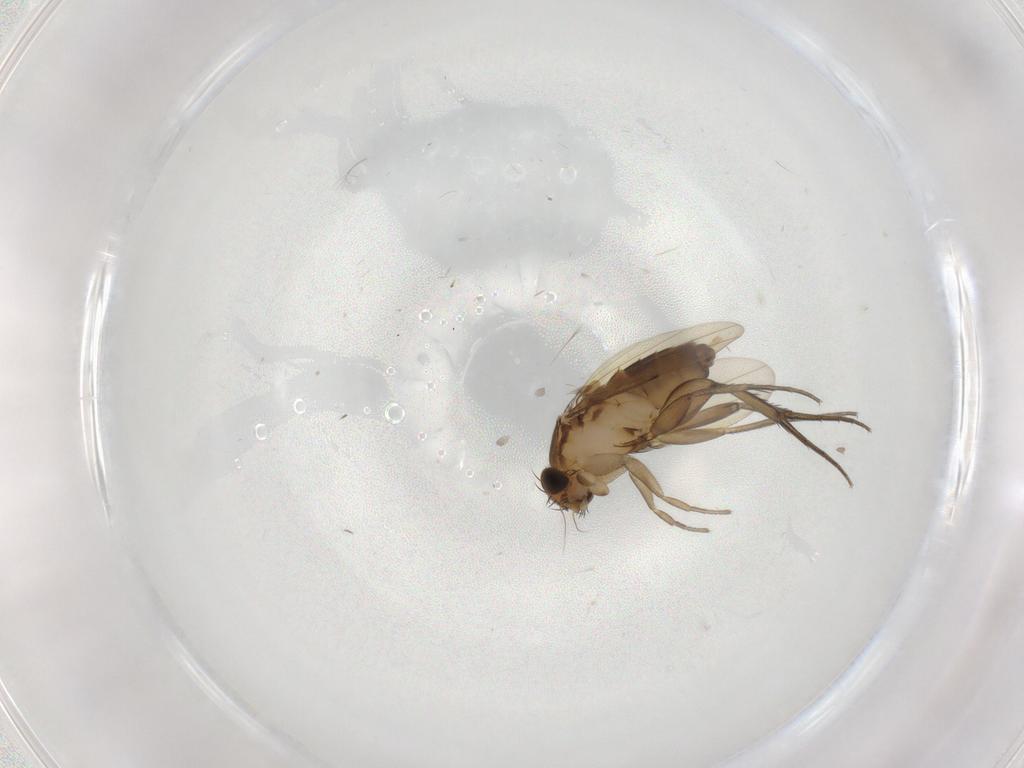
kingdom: Animalia
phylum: Arthropoda
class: Insecta
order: Diptera
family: Phoridae
